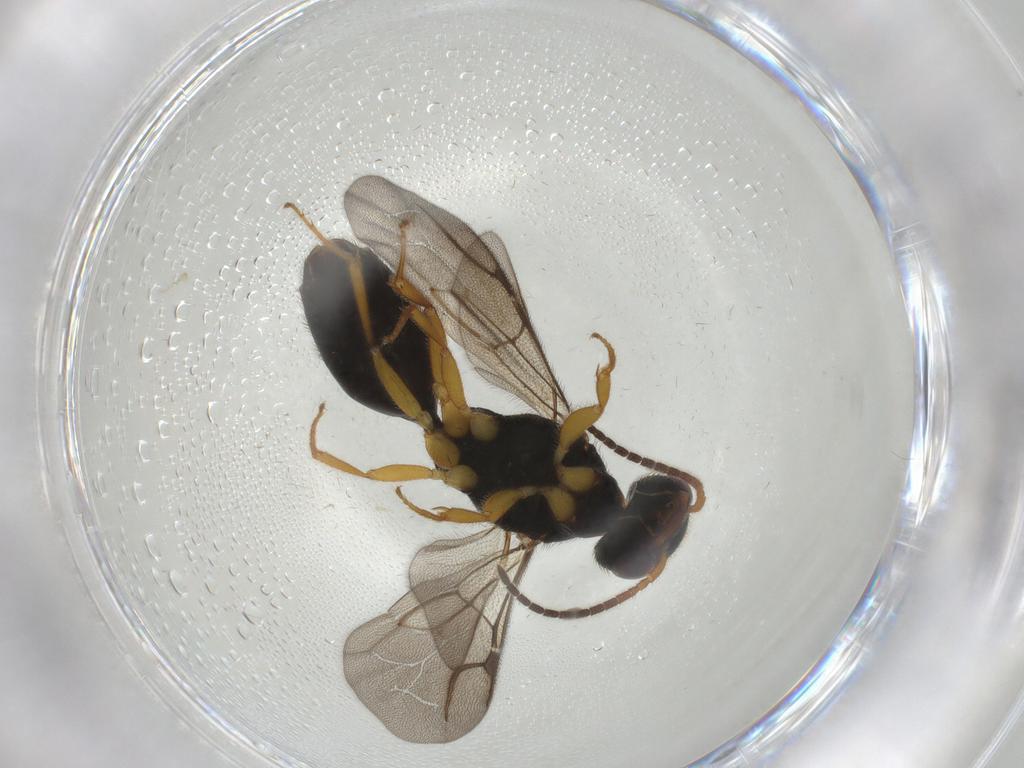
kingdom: Animalia
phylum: Arthropoda
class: Insecta
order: Hymenoptera
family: Bethylidae
